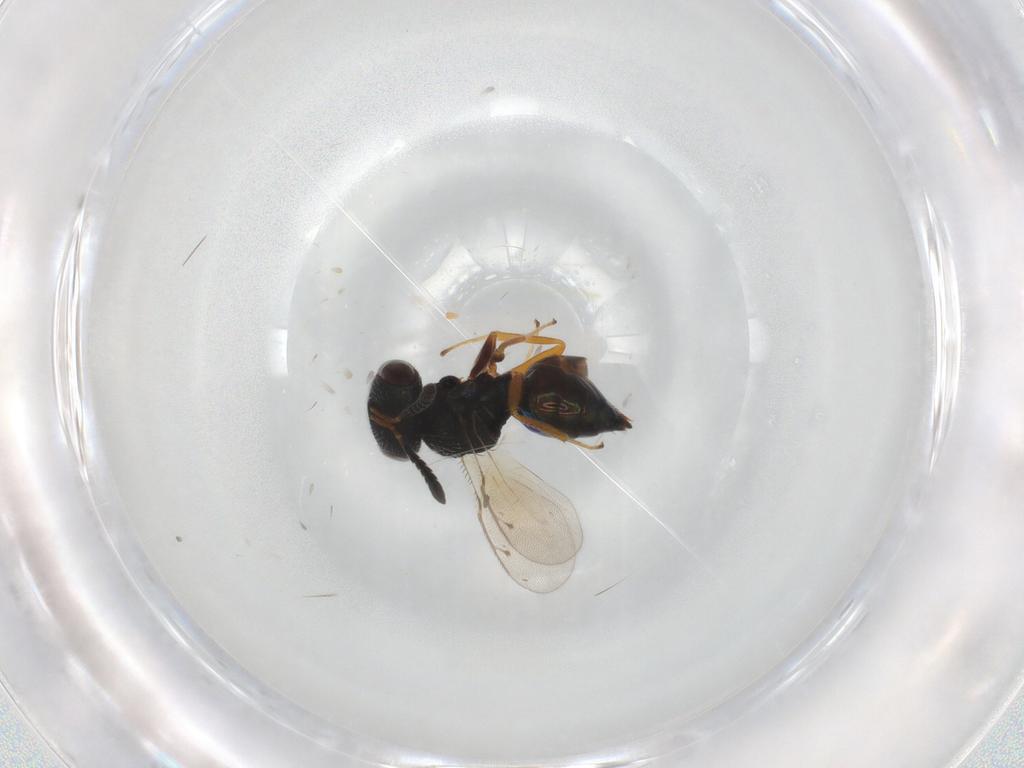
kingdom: Animalia
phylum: Arthropoda
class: Insecta
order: Hymenoptera
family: Pteromalidae
